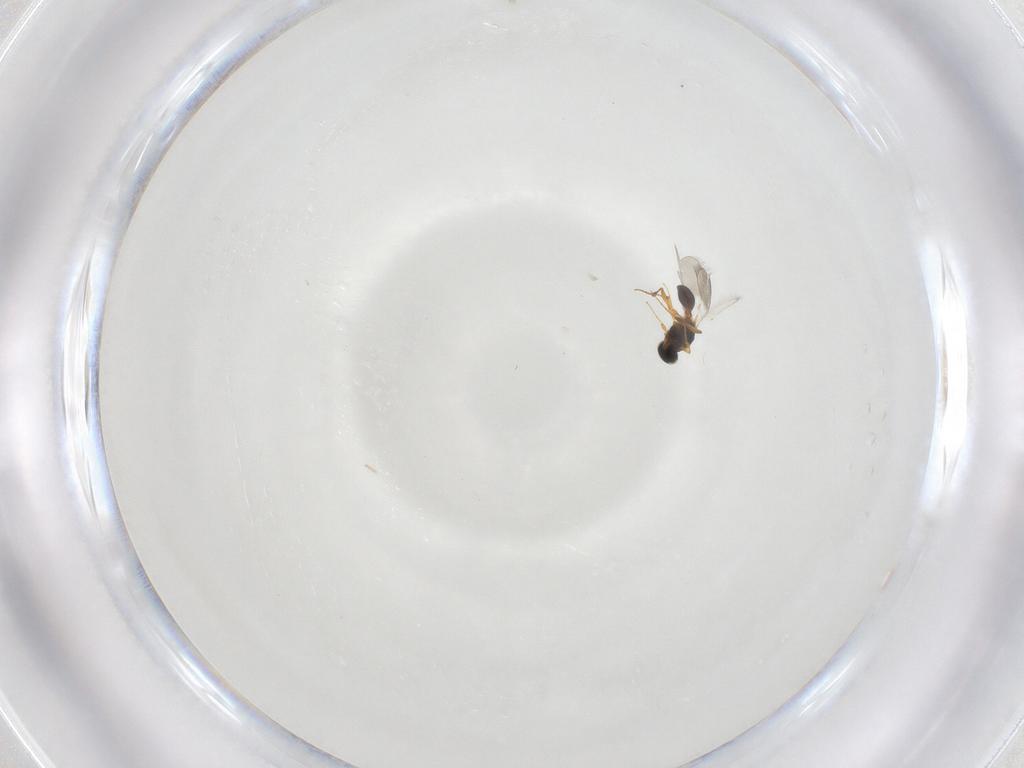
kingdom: Animalia
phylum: Arthropoda
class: Insecta
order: Hymenoptera
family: Platygastridae
